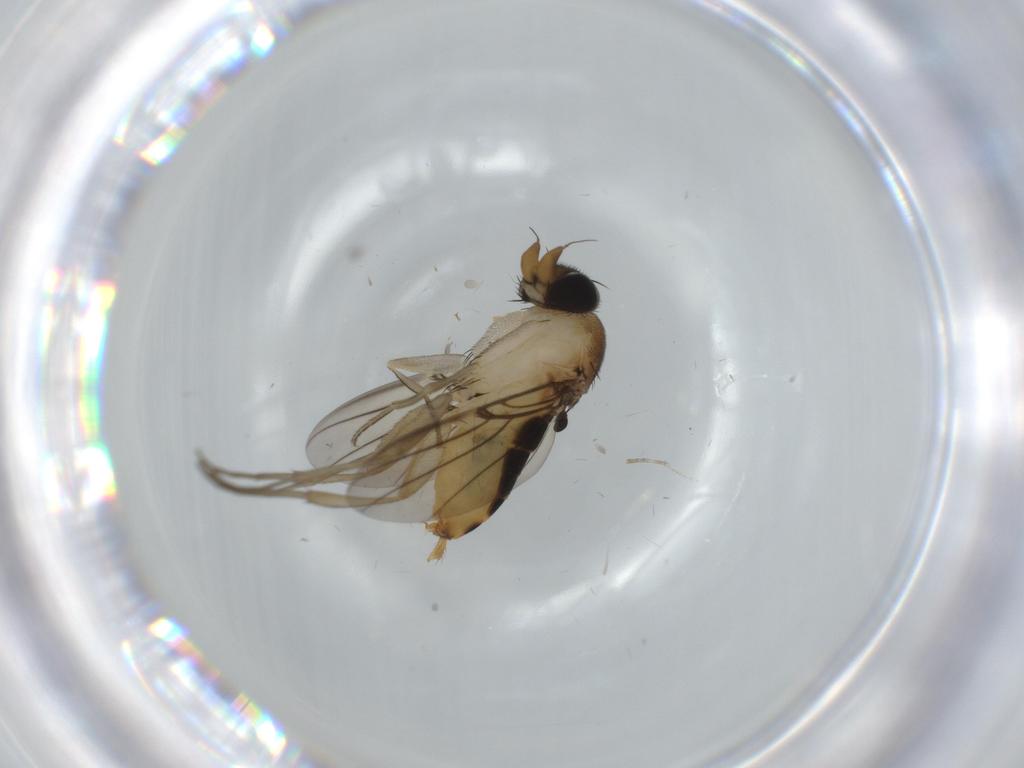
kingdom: Animalia
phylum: Arthropoda
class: Insecta
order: Diptera
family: Phoridae
